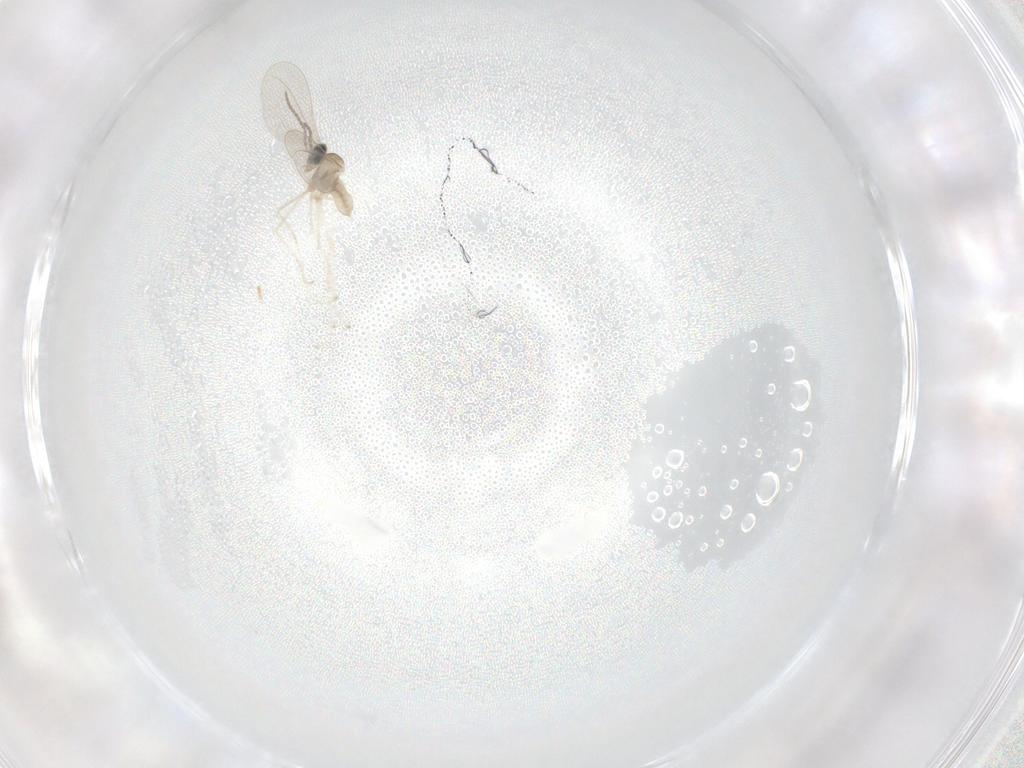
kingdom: Animalia
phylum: Arthropoda
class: Insecta
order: Diptera
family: Cecidomyiidae
